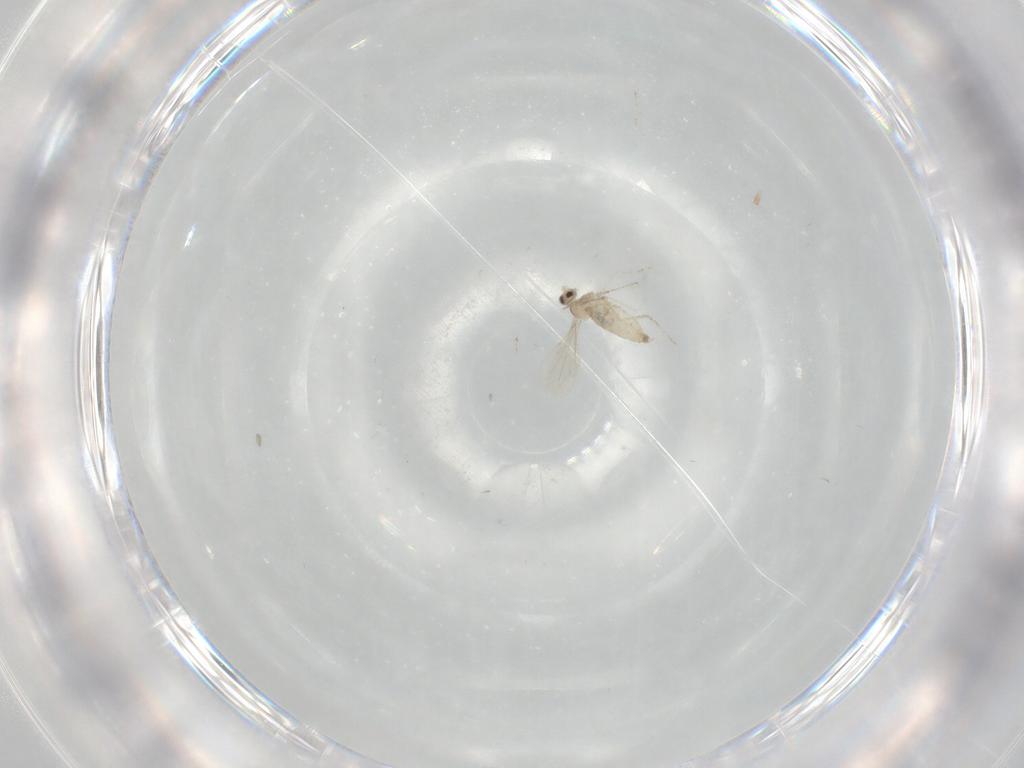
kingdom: Animalia
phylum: Arthropoda
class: Insecta
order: Diptera
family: Cecidomyiidae
